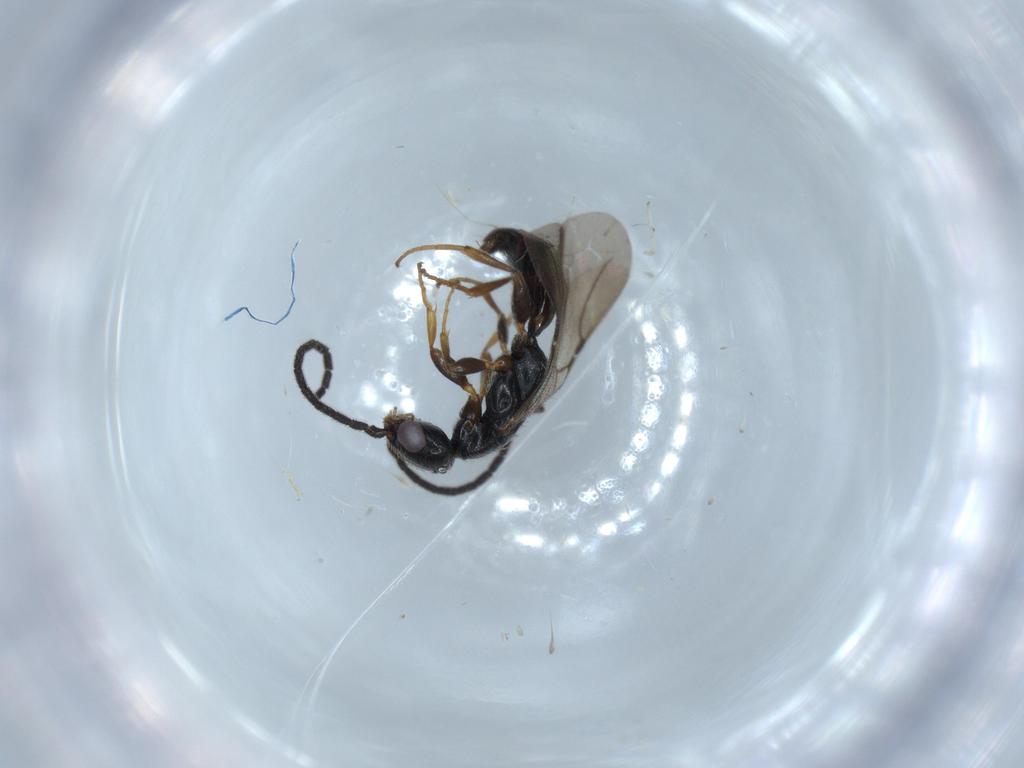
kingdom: Animalia
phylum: Arthropoda
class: Insecta
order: Hymenoptera
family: Bethylidae
